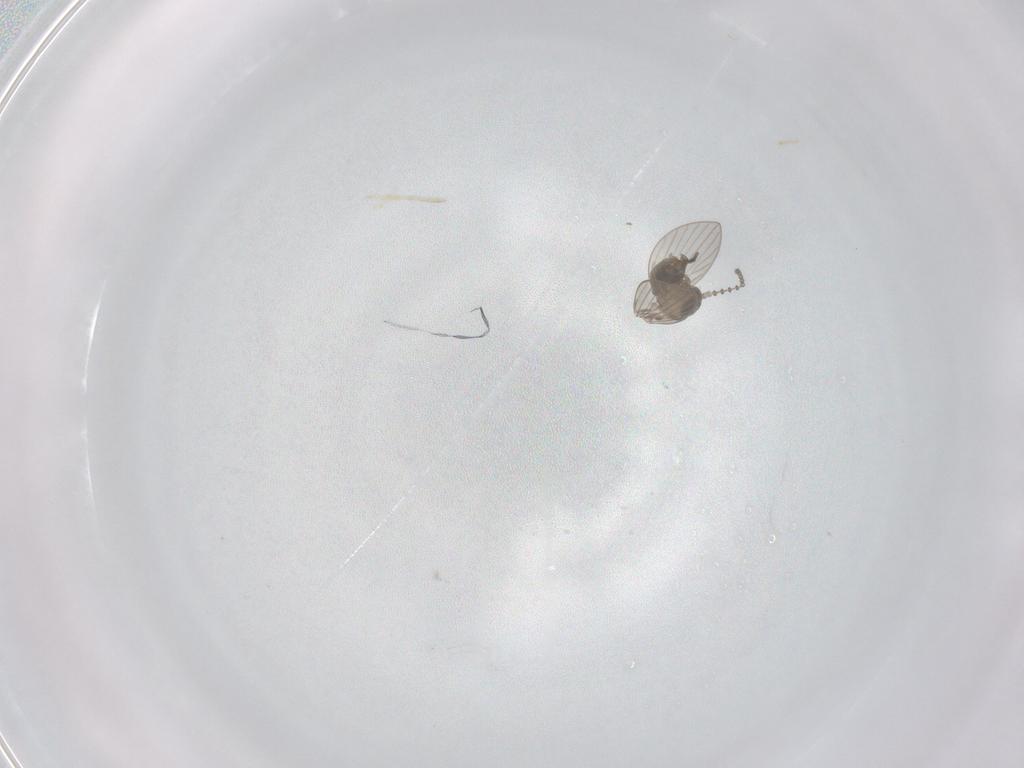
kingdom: Animalia
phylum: Arthropoda
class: Insecta
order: Diptera
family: Psychodidae
